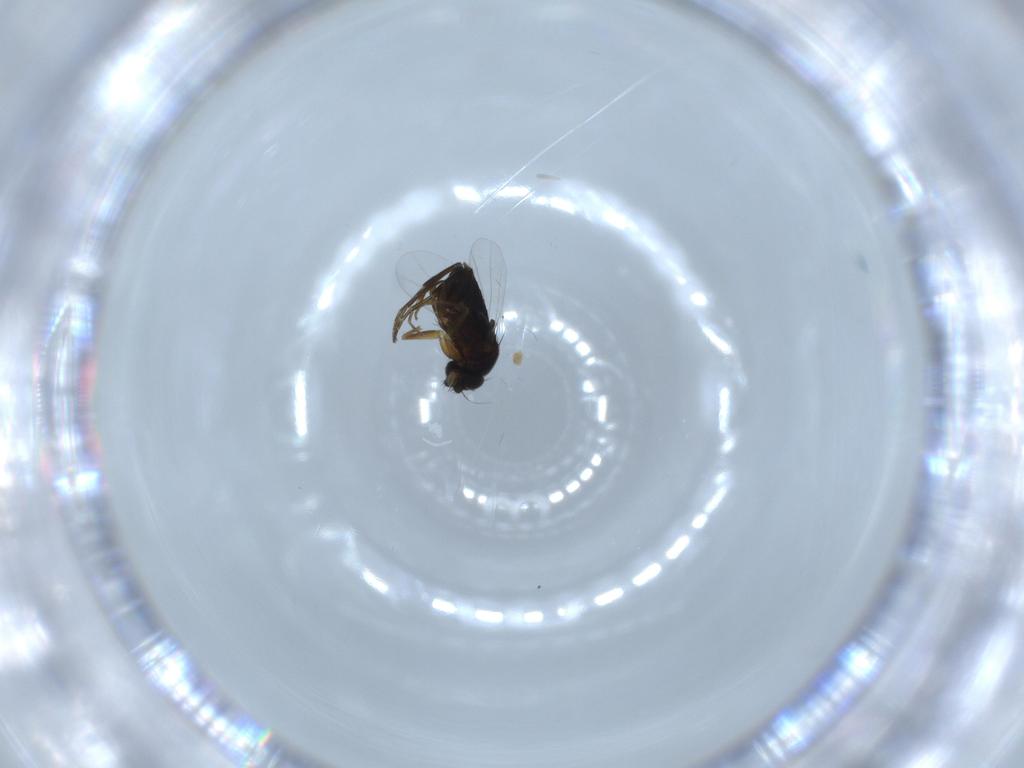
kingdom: Animalia
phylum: Arthropoda
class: Insecta
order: Diptera
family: Phoridae
